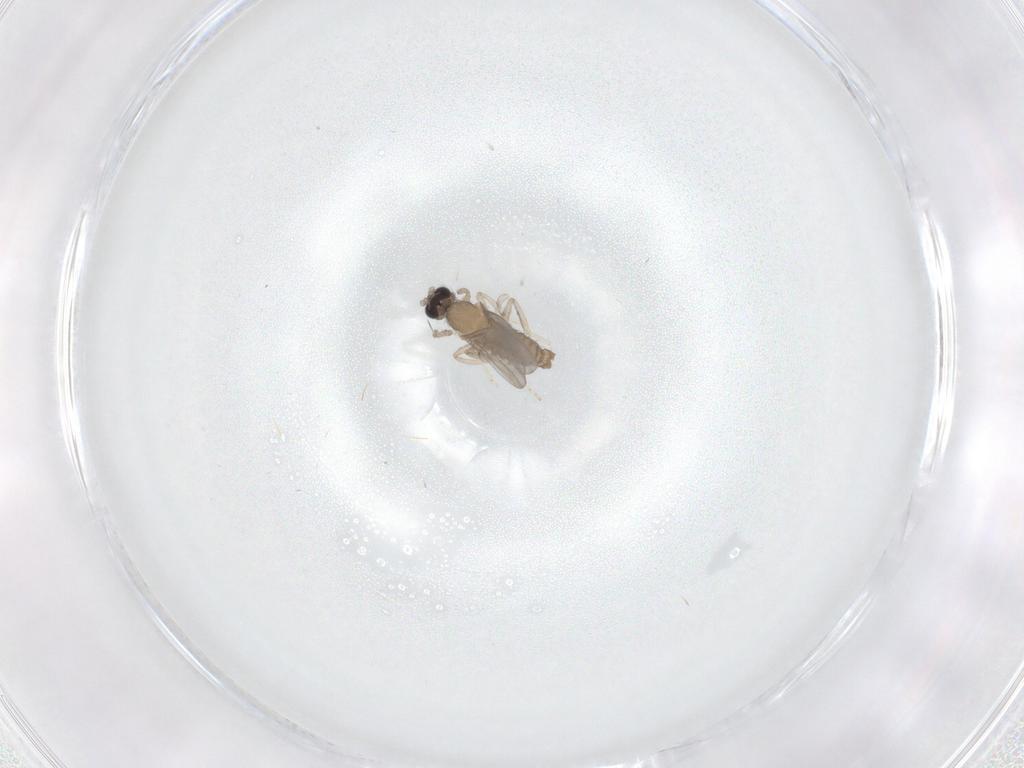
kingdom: Animalia
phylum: Arthropoda
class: Insecta
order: Diptera
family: Cecidomyiidae
